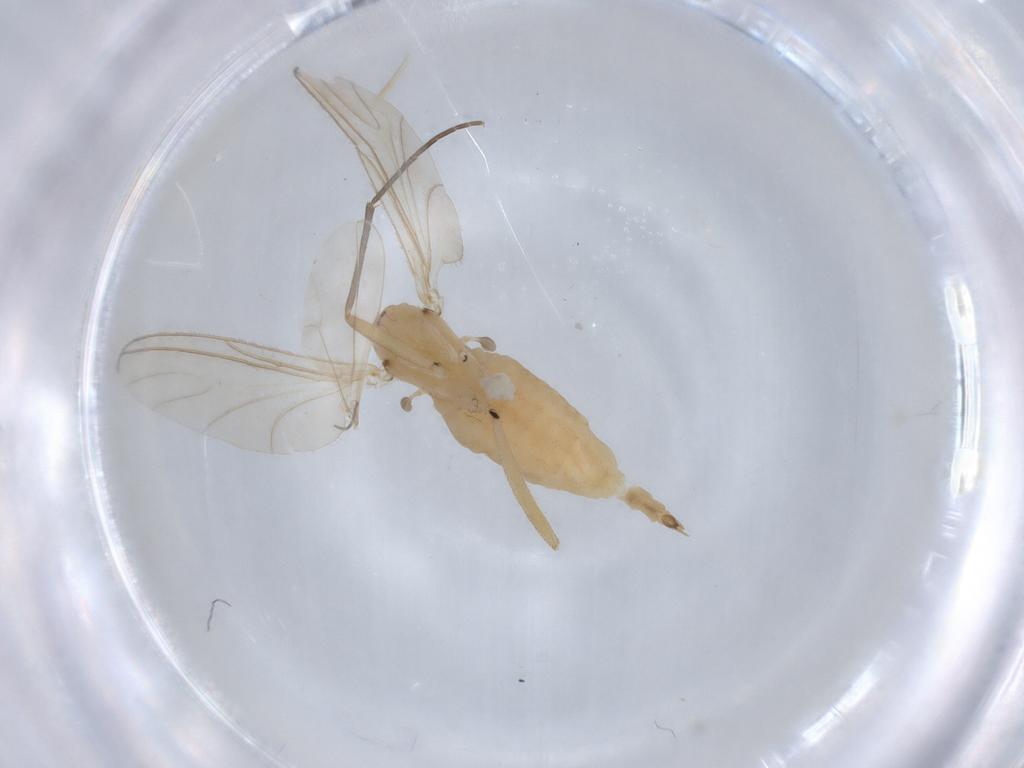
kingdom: Animalia
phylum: Arthropoda
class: Insecta
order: Diptera
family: Sciaridae
